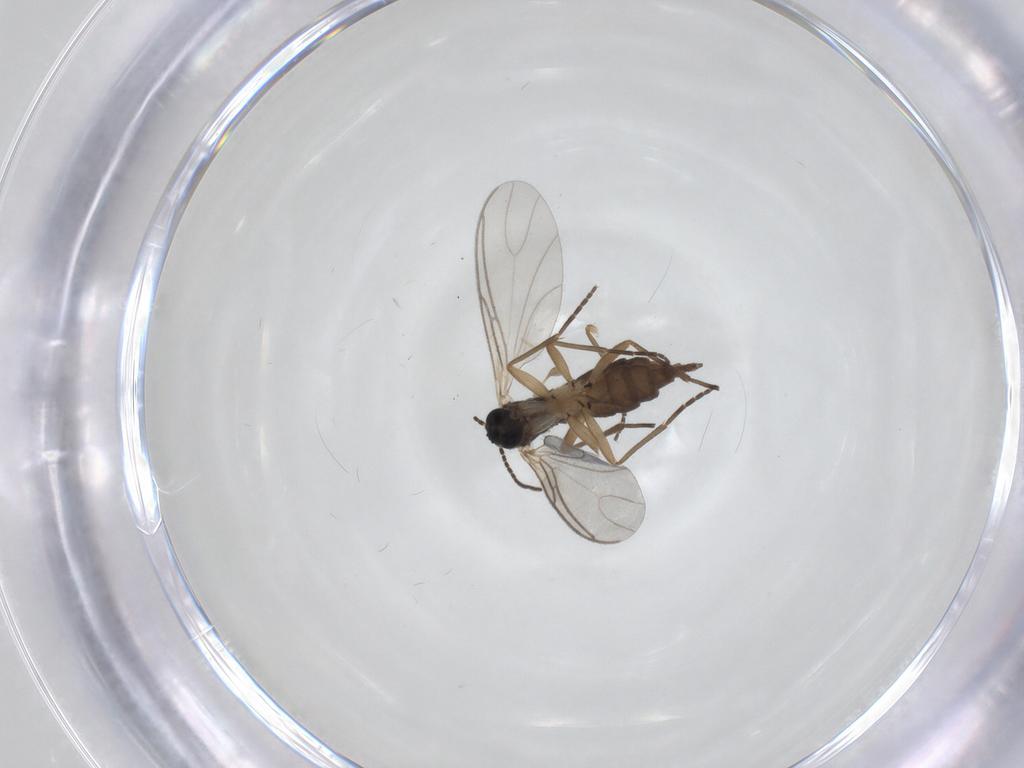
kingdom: Animalia
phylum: Arthropoda
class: Insecta
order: Diptera
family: Sciaridae
